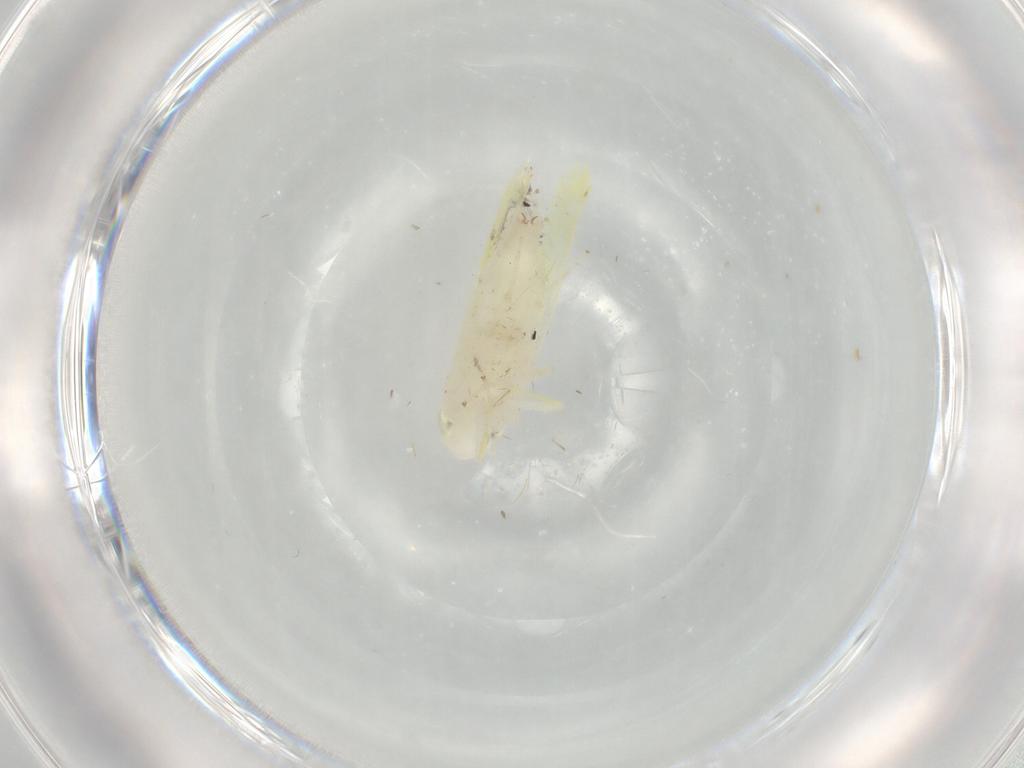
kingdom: Animalia
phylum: Arthropoda
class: Insecta
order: Hemiptera
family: Cicadellidae
